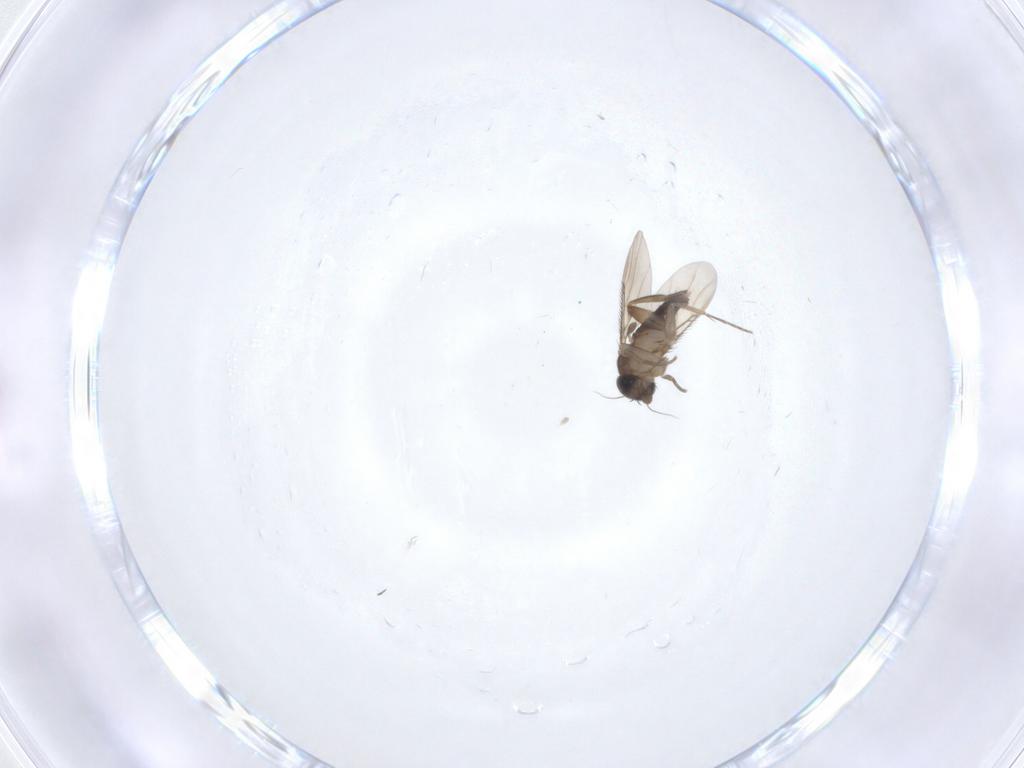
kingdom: Animalia
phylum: Arthropoda
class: Insecta
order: Diptera
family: Phoridae
